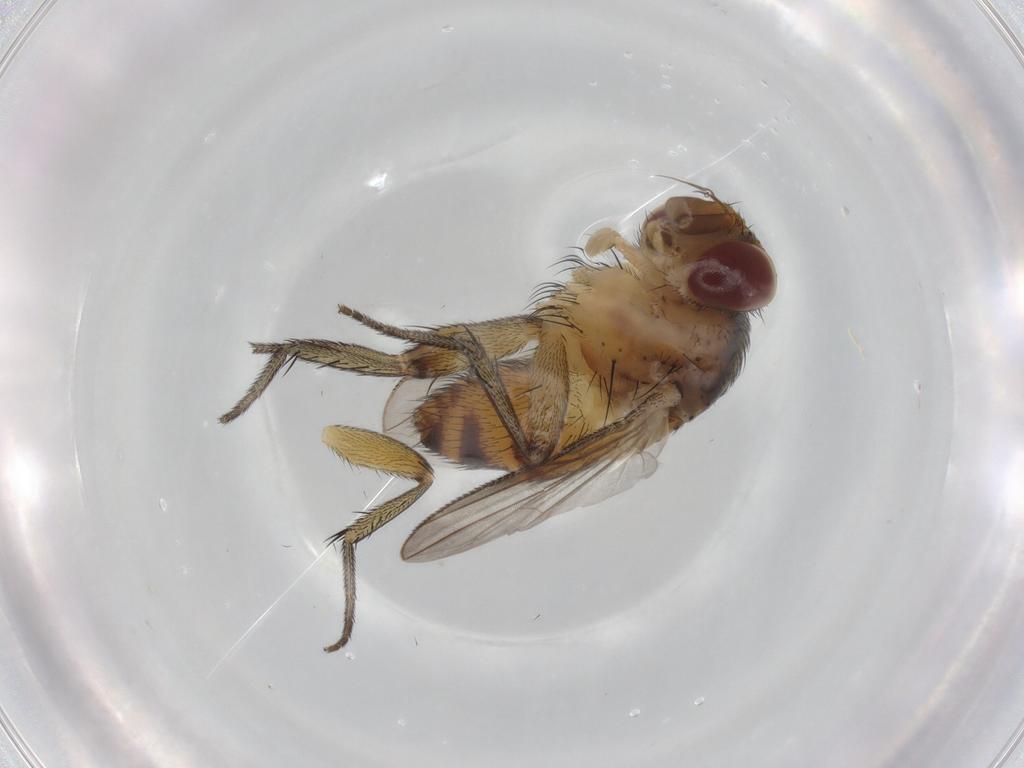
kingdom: Animalia
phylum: Arthropoda
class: Insecta
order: Diptera
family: Tachinidae
